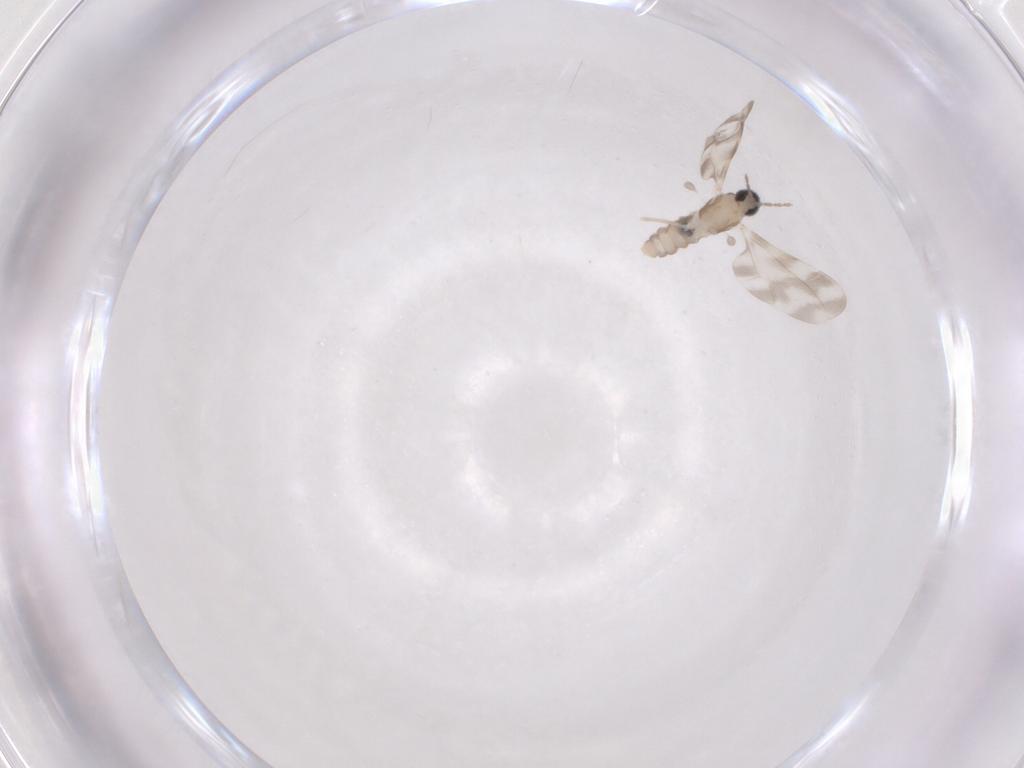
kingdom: Animalia
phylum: Arthropoda
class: Insecta
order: Diptera
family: Cecidomyiidae
